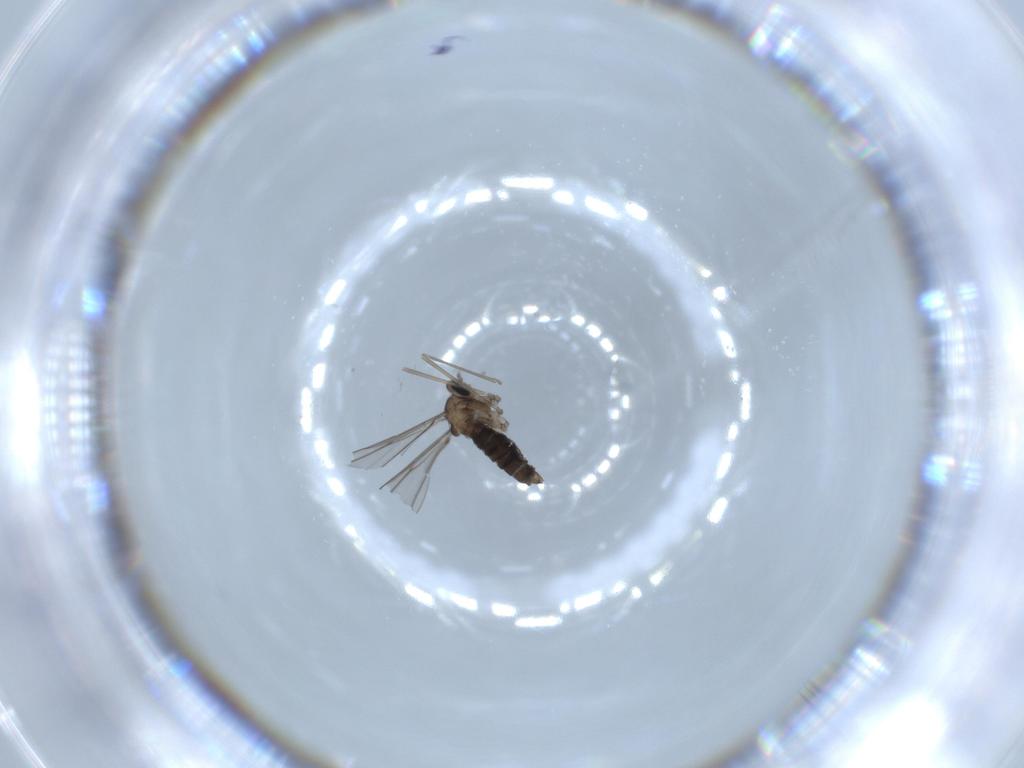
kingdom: Animalia
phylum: Arthropoda
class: Insecta
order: Diptera
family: Cecidomyiidae
